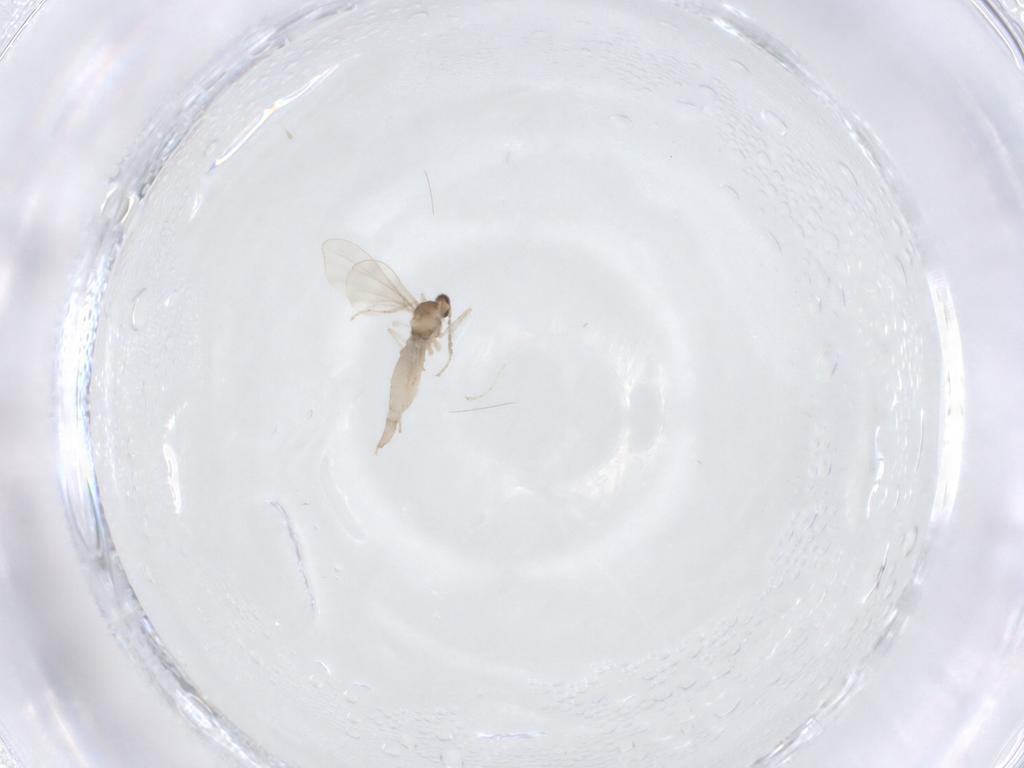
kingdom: Animalia
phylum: Arthropoda
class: Insecta
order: Diptera
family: Cecidomyiidae
